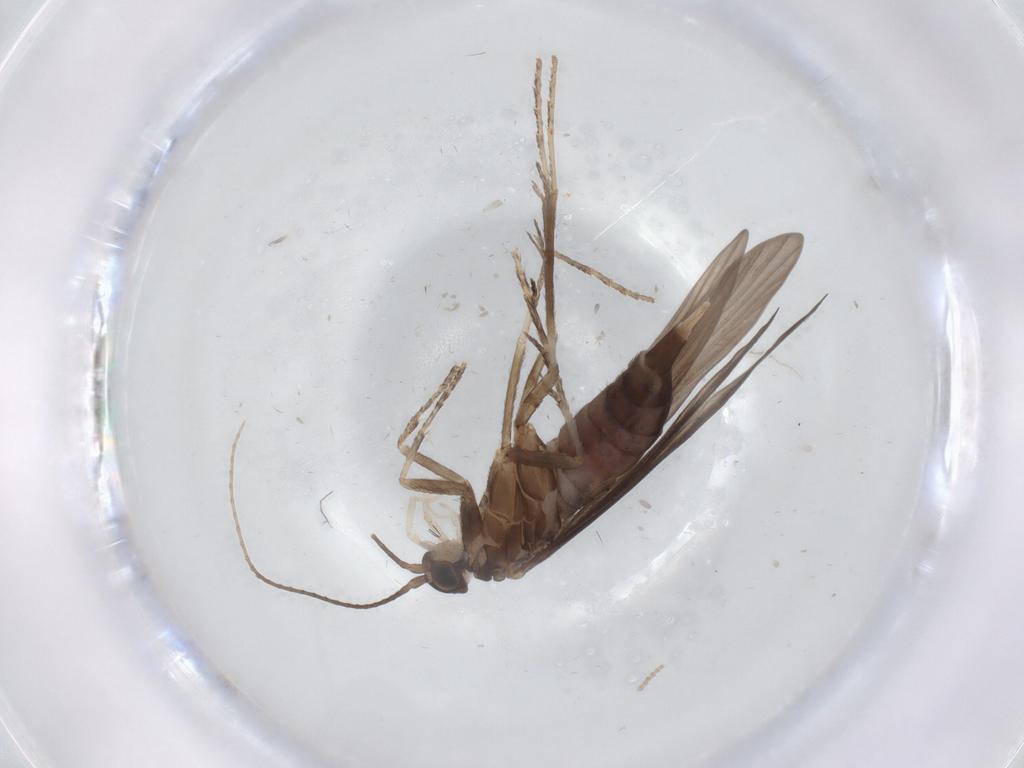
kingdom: Animalia
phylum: Arthropoda
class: Insecta
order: Trichoptera
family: Xiphocentronidae
